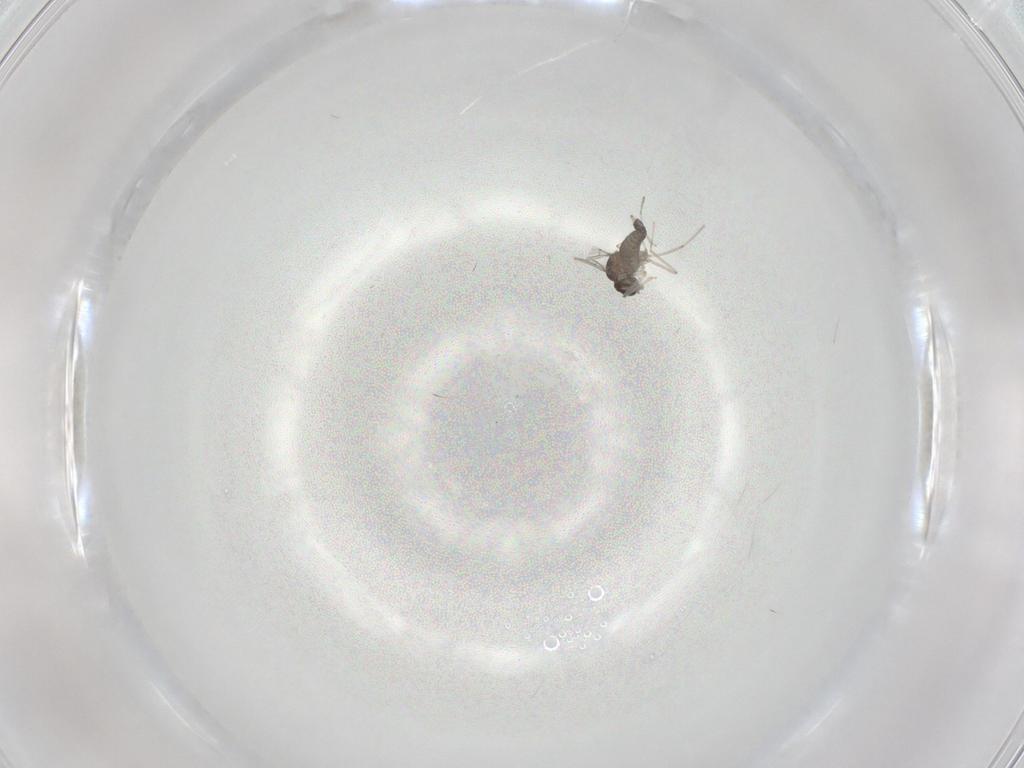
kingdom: Animalia
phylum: Arthropoda
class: Insecta
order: Diptera
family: Cecidomyiidae
